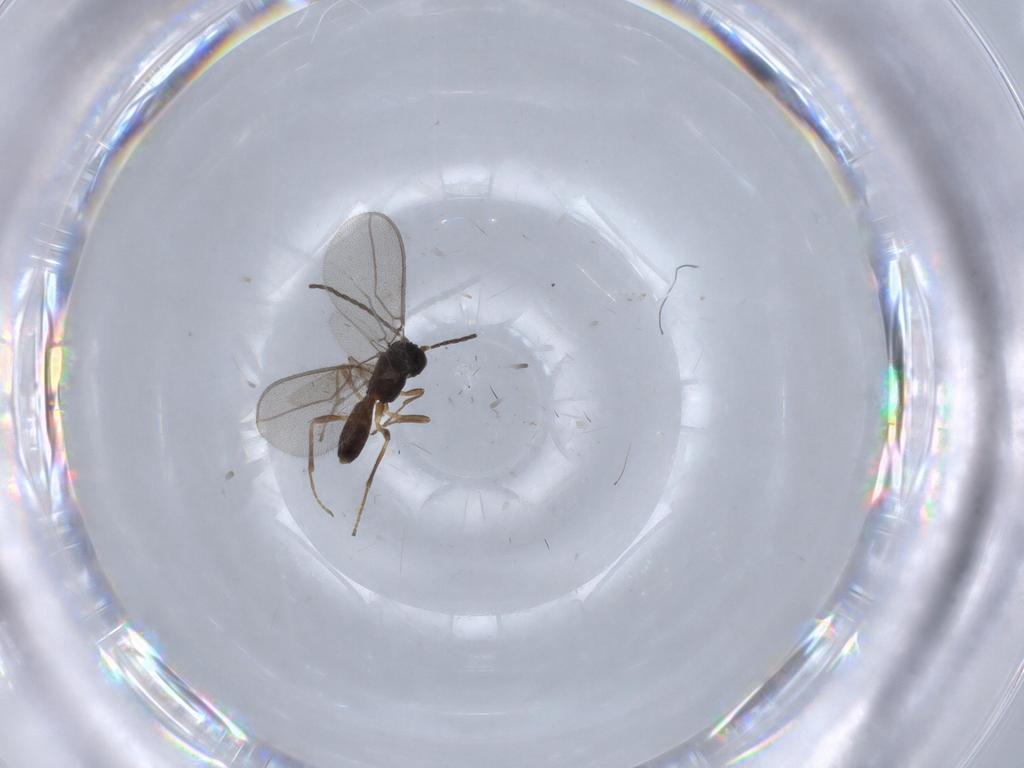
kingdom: Animalia
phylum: Arthropoda
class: Insecta
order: Hymenoptera
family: Braconidae
